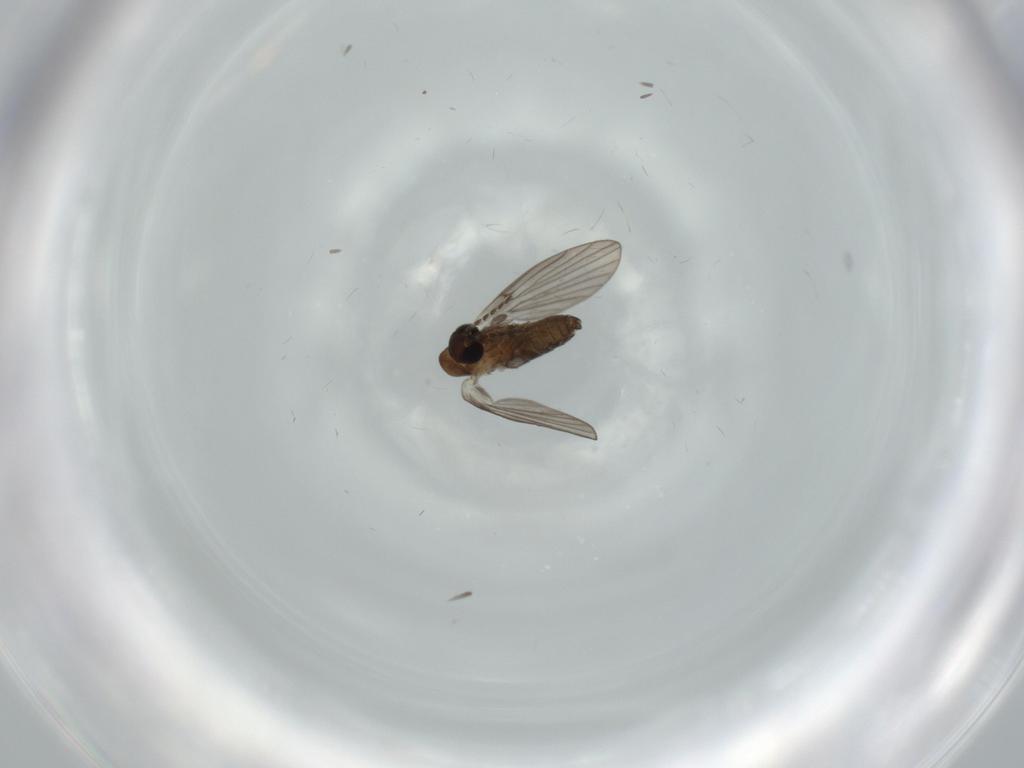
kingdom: Animalia
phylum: Arthropoda
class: Insecta
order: Diptera
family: Psychodidae
